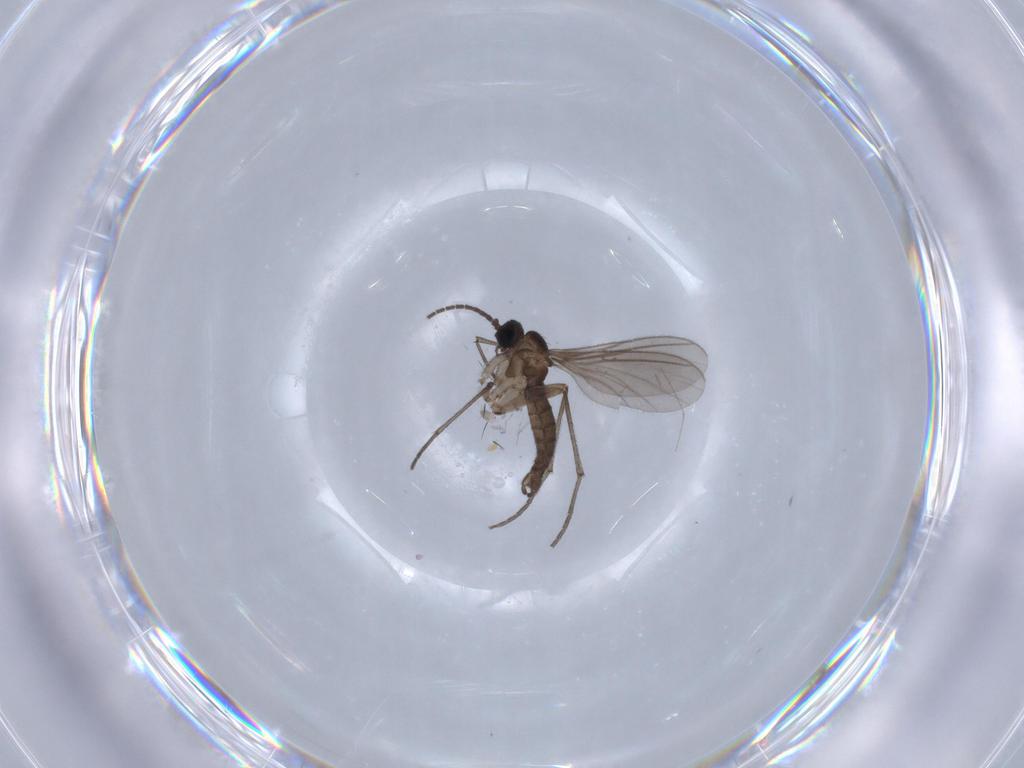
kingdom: Animalia
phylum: Arthropoda
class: Insecta
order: Diptera
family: Sciaridae
